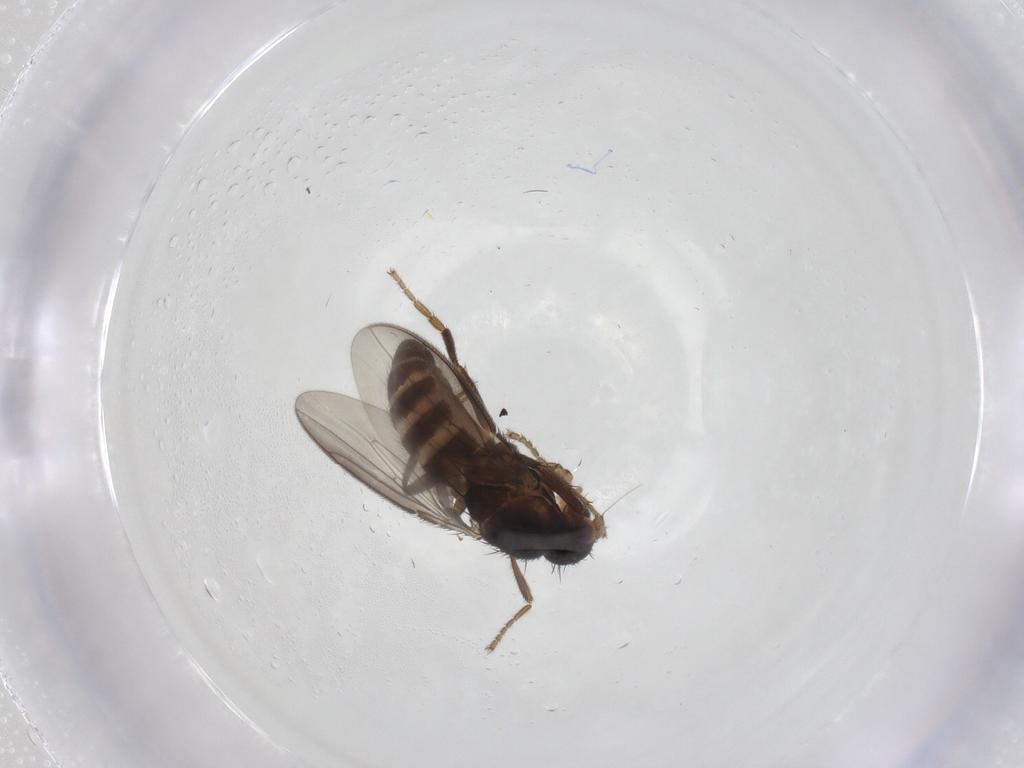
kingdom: Animalia
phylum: Arthropoda
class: Insecta
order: Diptera
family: Sphaeroceridae
